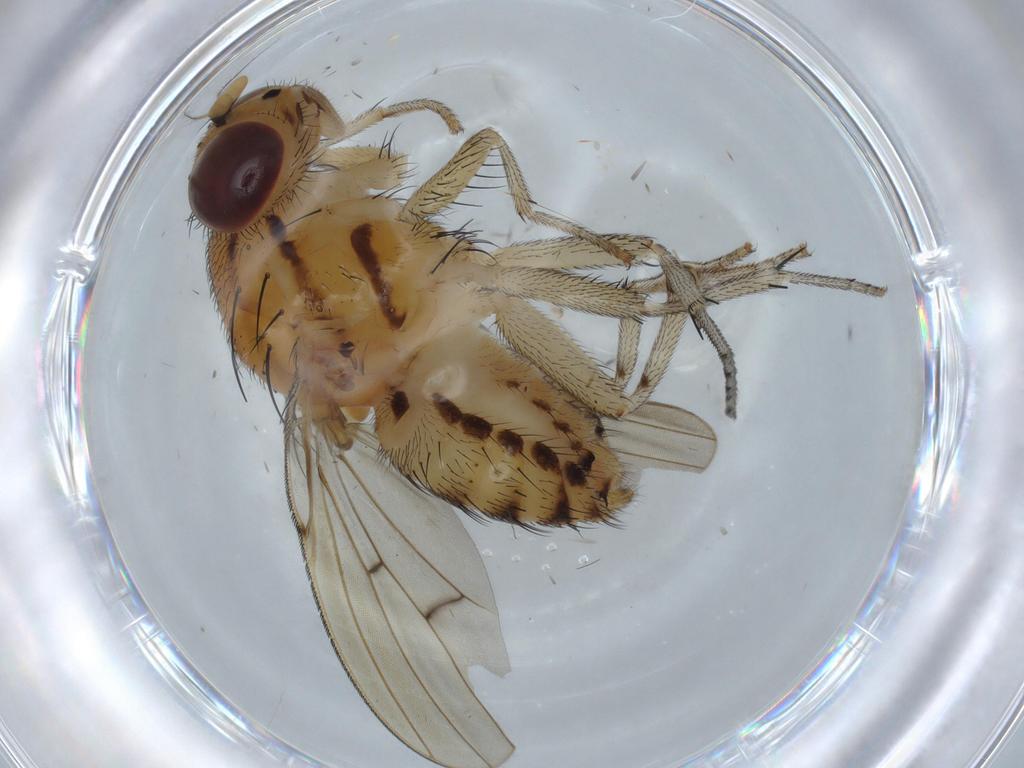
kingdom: Animalia
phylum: Arthropoda
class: Insecta
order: Diptera
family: Lauxaniidae
